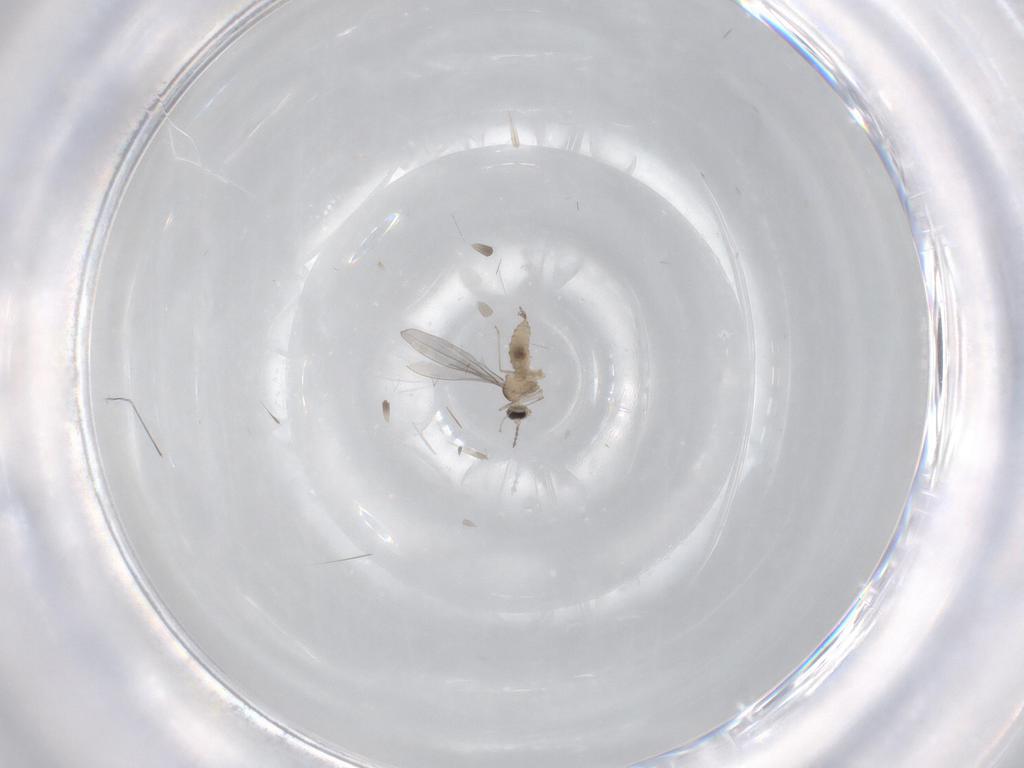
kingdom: Animalia
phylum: Arthropoda
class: Insecta
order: Diptera
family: Cecidomyiidae
